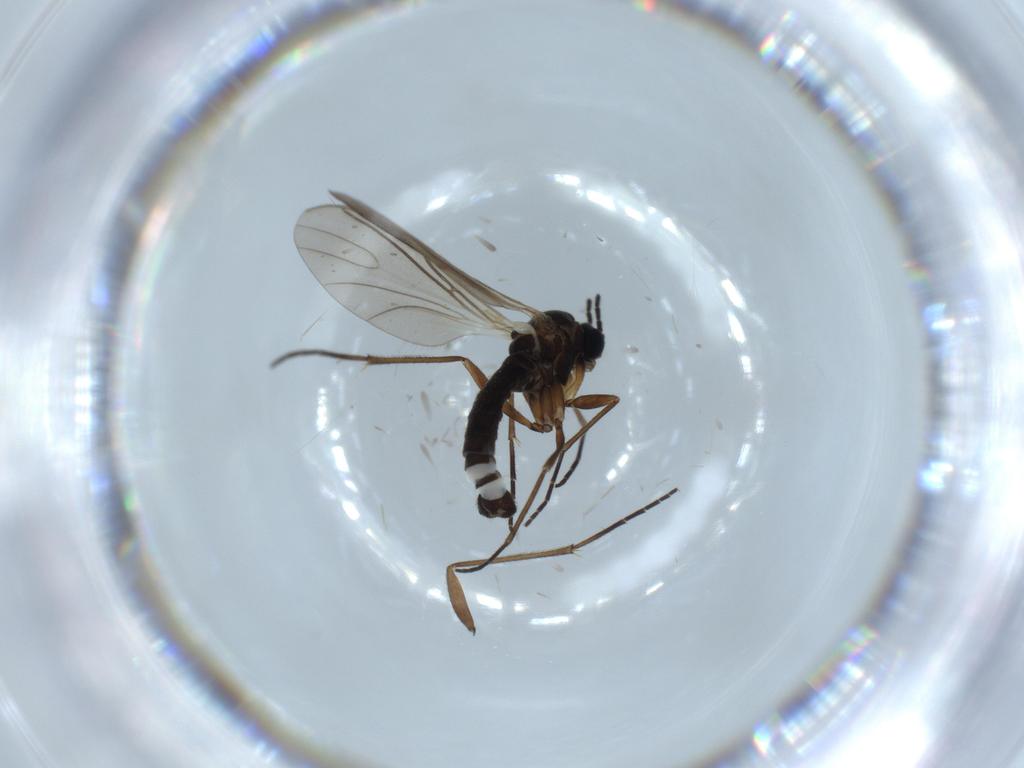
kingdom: Animalia
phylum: Arthropoda
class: Insecta
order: Diptera
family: Sciaridae
